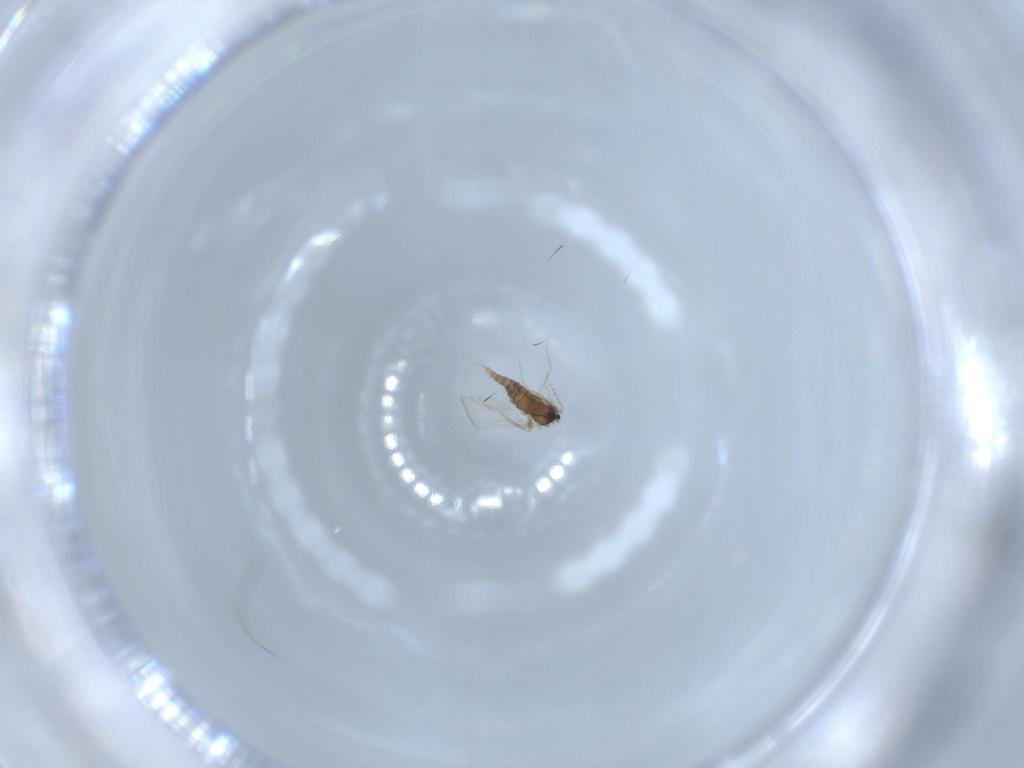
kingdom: Animalia
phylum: Arthropoda
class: Insecta
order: Diptera
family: Cecidomyiidae
